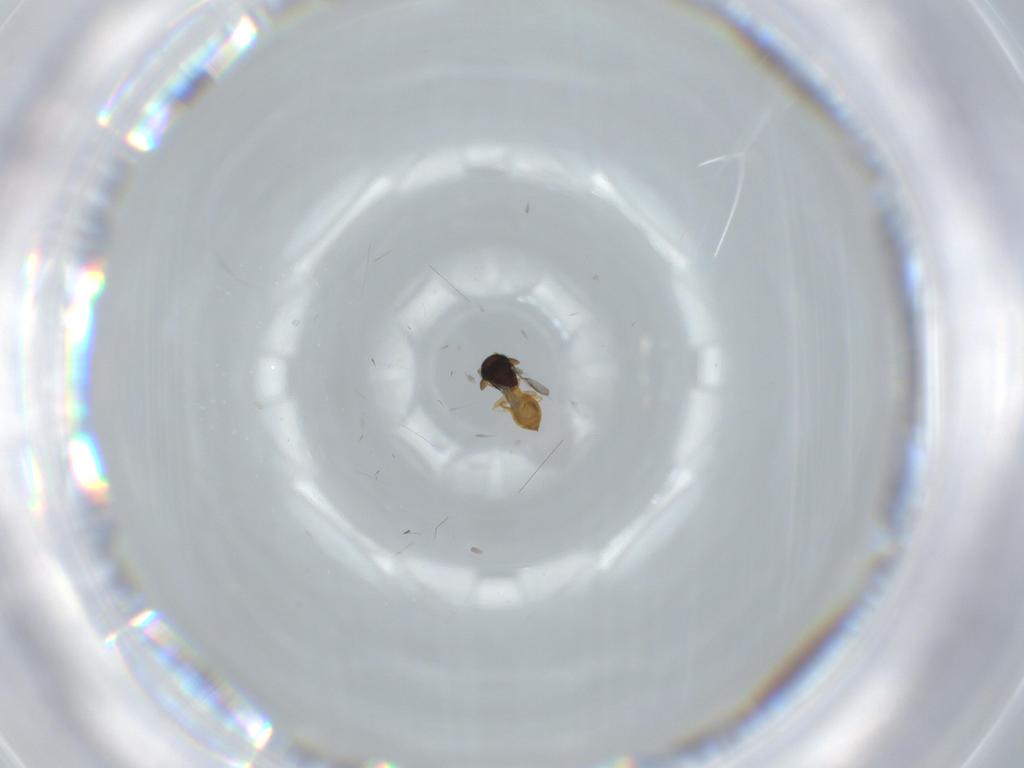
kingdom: Animalia
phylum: Arthropoda
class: Insecta
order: Hymenoptera
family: Scelionidae
